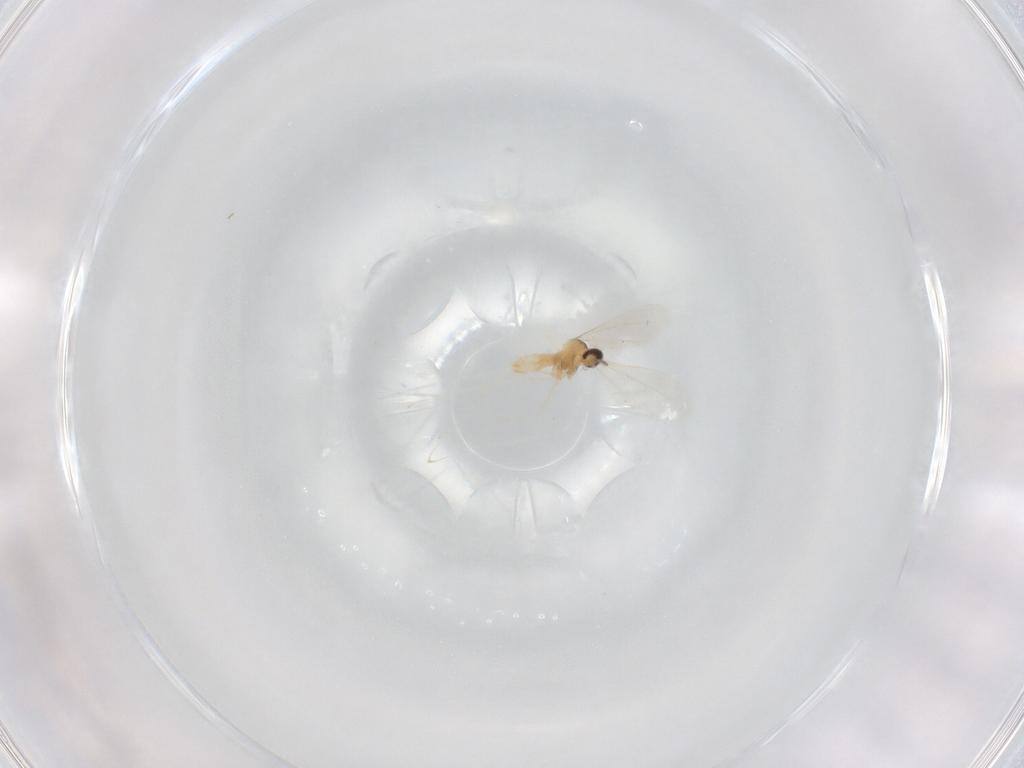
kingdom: Animalia
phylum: Arthropoda
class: Insecta
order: Diptera
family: Cecidomyiidae
